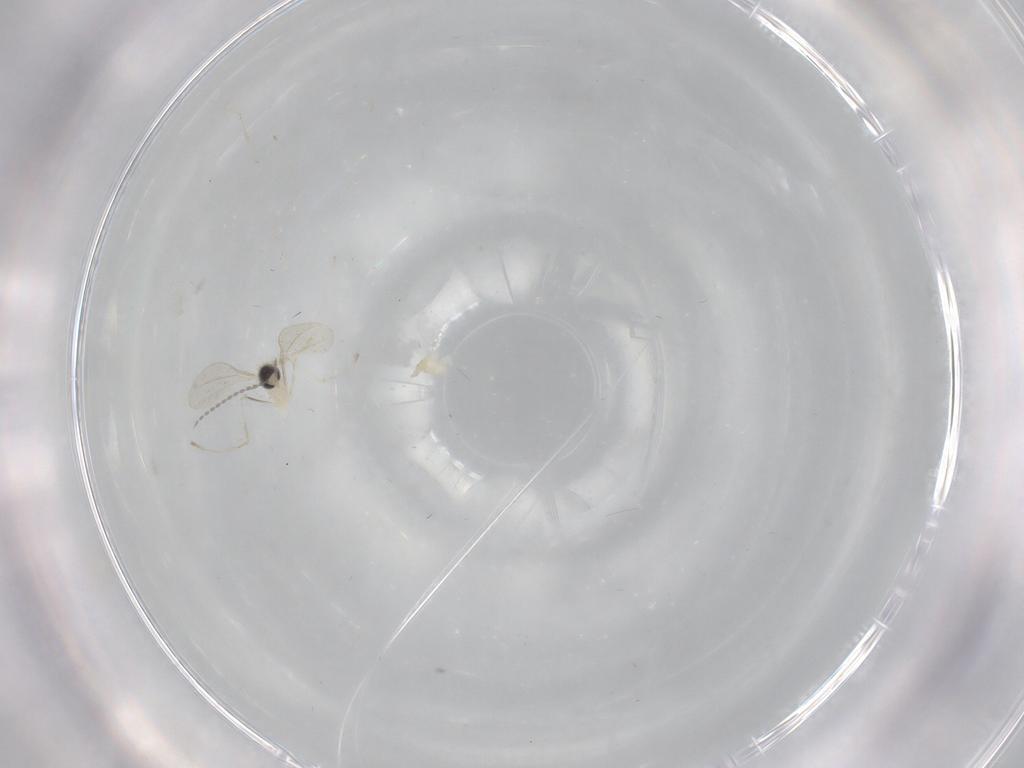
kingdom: Animalia
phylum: Arthropoda
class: Insecta
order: Diptera
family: Cecidomyiidae
